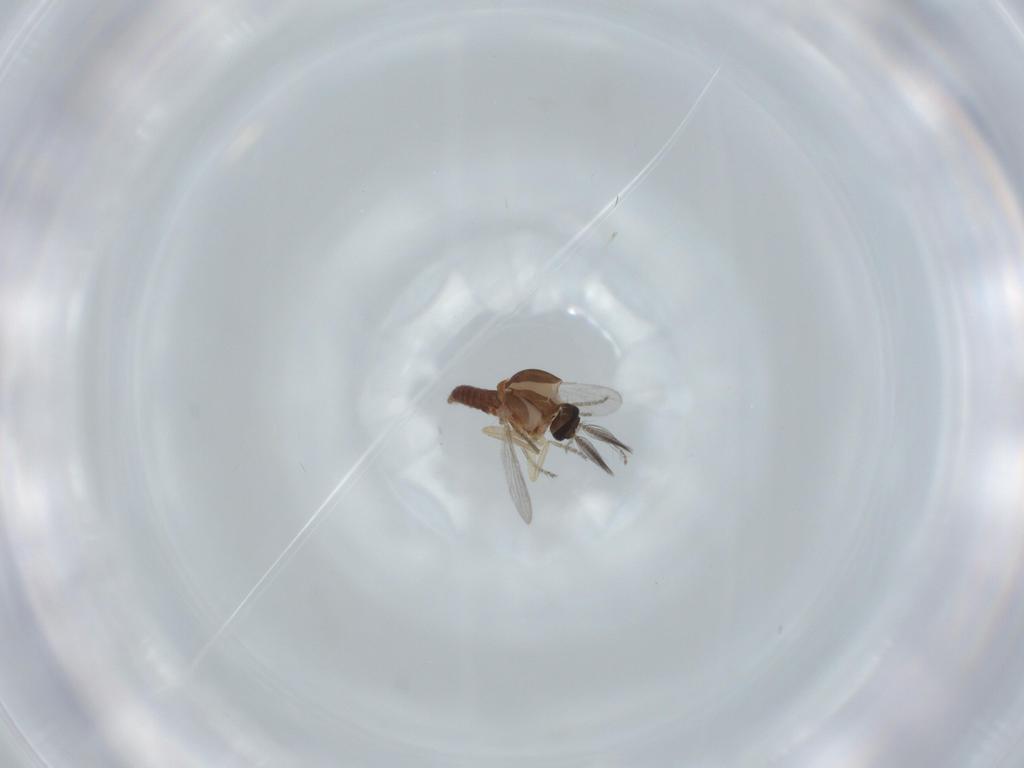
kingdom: Animalia
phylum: Arthropoda
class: Insecta
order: Diptera
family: Ceratopogonidae
